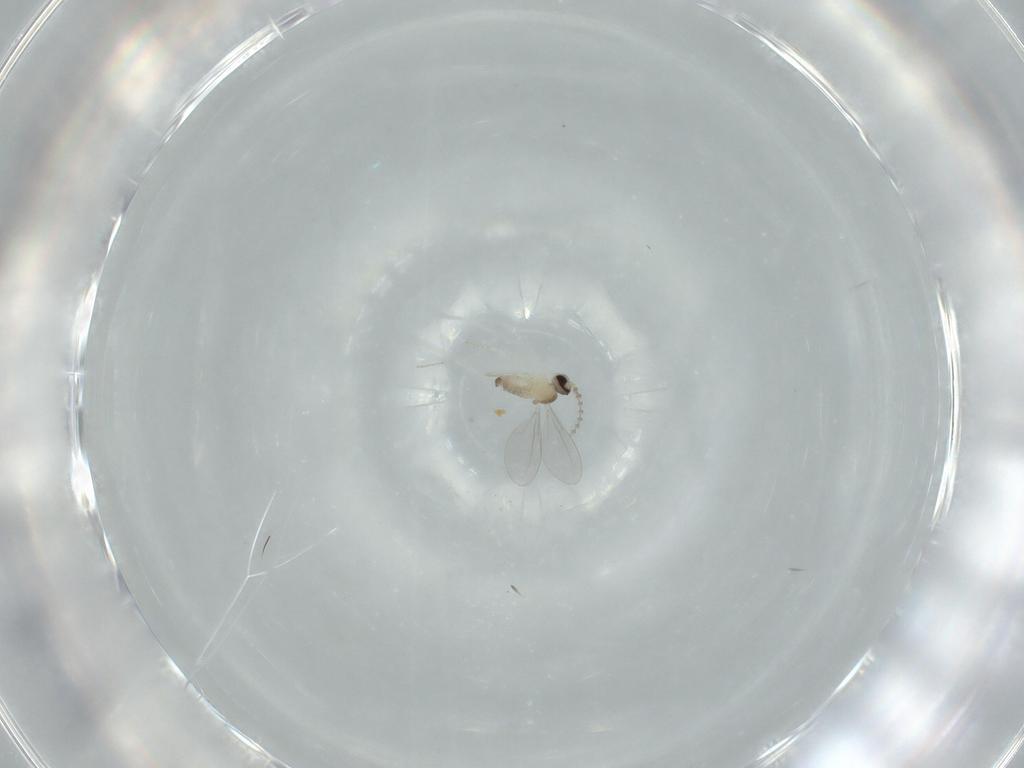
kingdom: Animalia
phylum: Arthropoda
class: Insecta
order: Diptera
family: Cecidomyiidae
